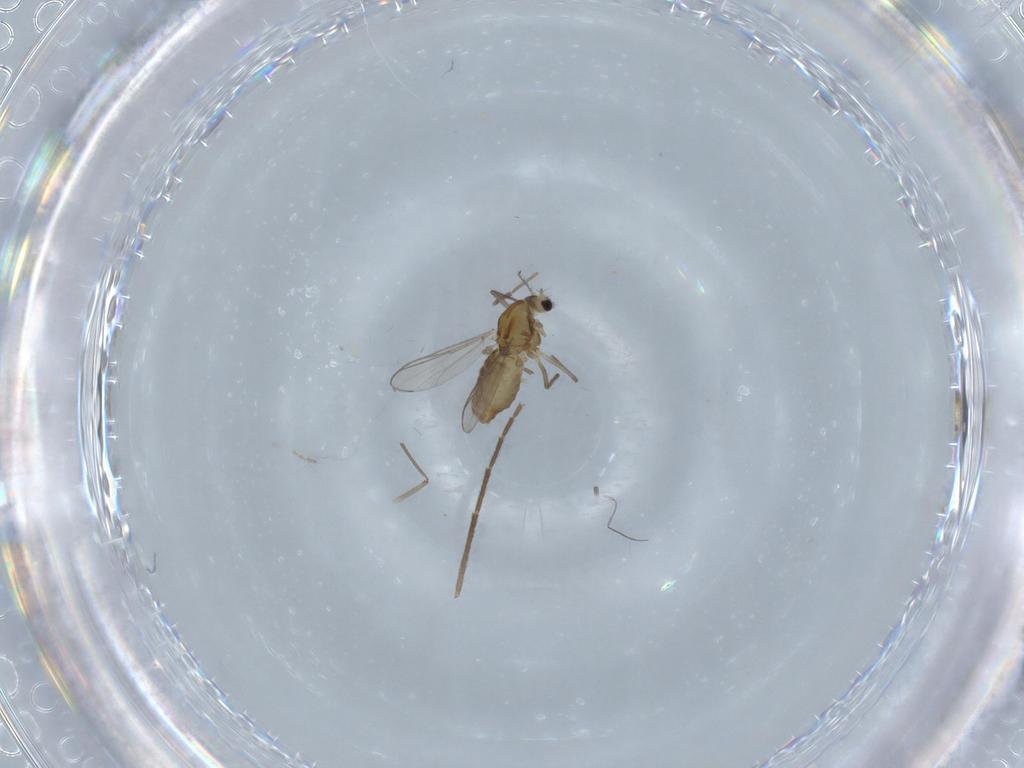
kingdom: Animalia
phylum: Arthropoda
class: Insecta
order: Diptera
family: Cecidomyiidae
